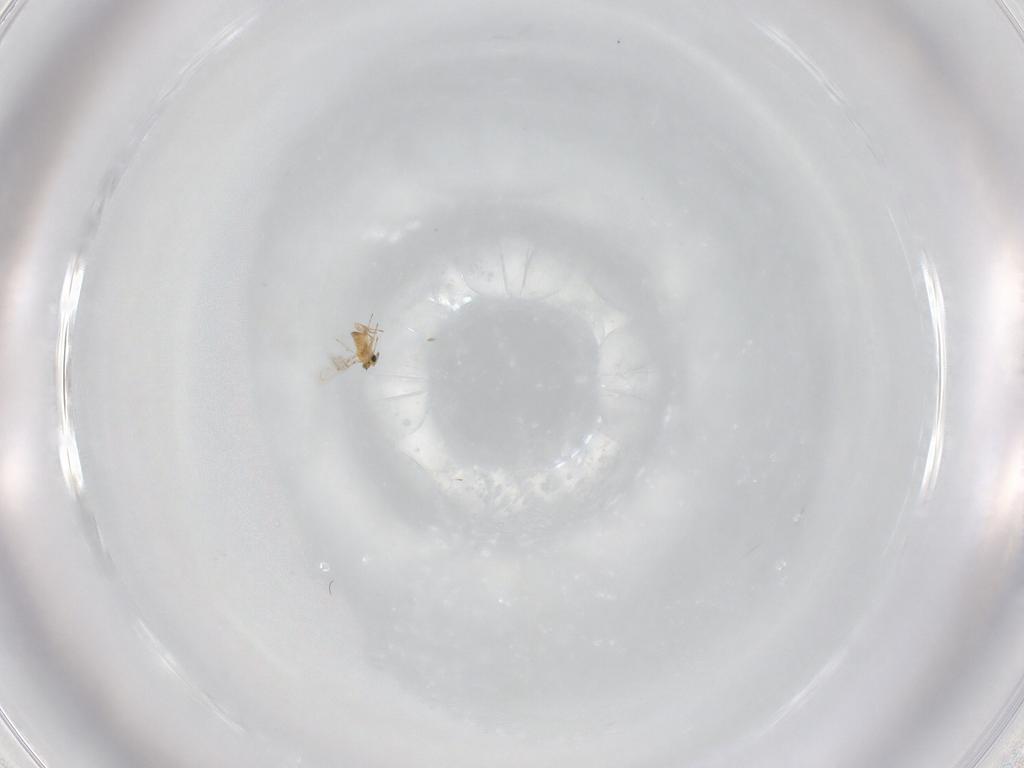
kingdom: Animalia
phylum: Arthropoda
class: Insecta
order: Hymenoptera
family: Trichogrammatidae
